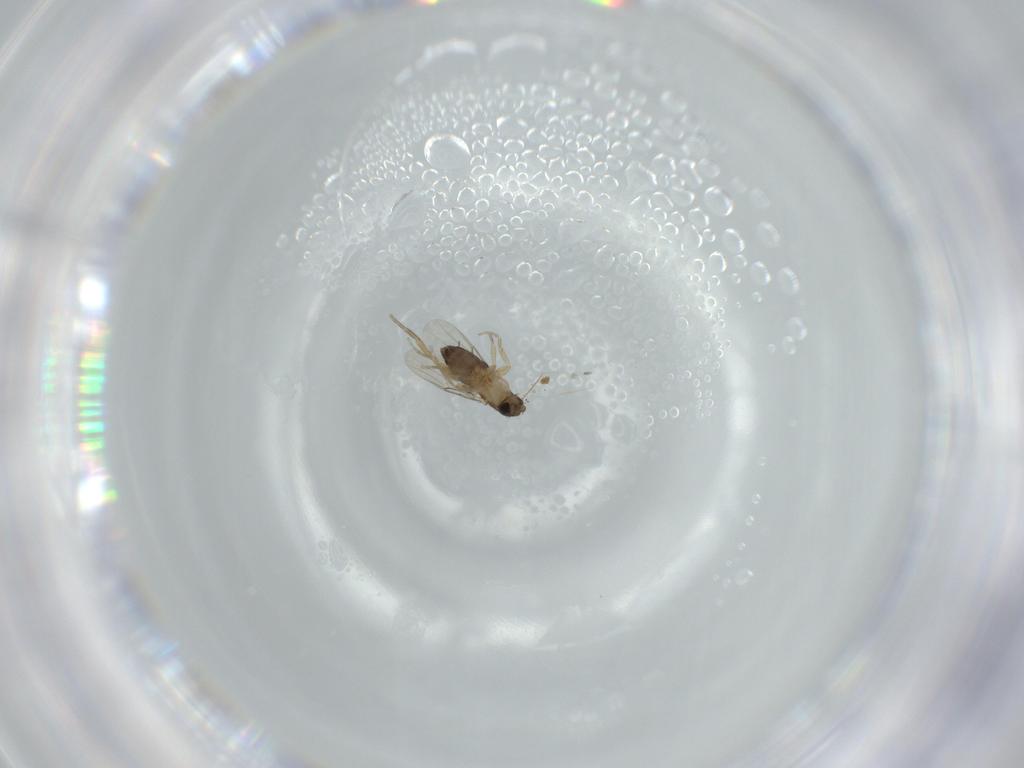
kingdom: Animalia
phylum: Arthropoda
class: Insecta
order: Diptera
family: Phoridae
